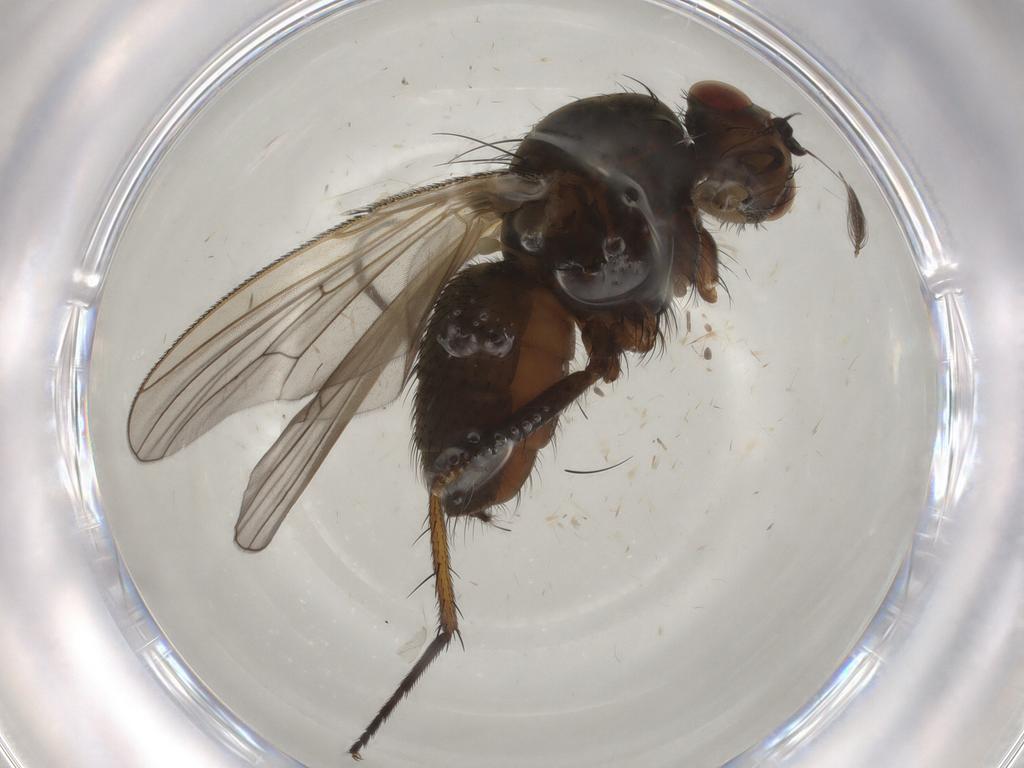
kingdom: Animalia
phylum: Arthropoda
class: Insecta
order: Diptera
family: Anthomyiidae
